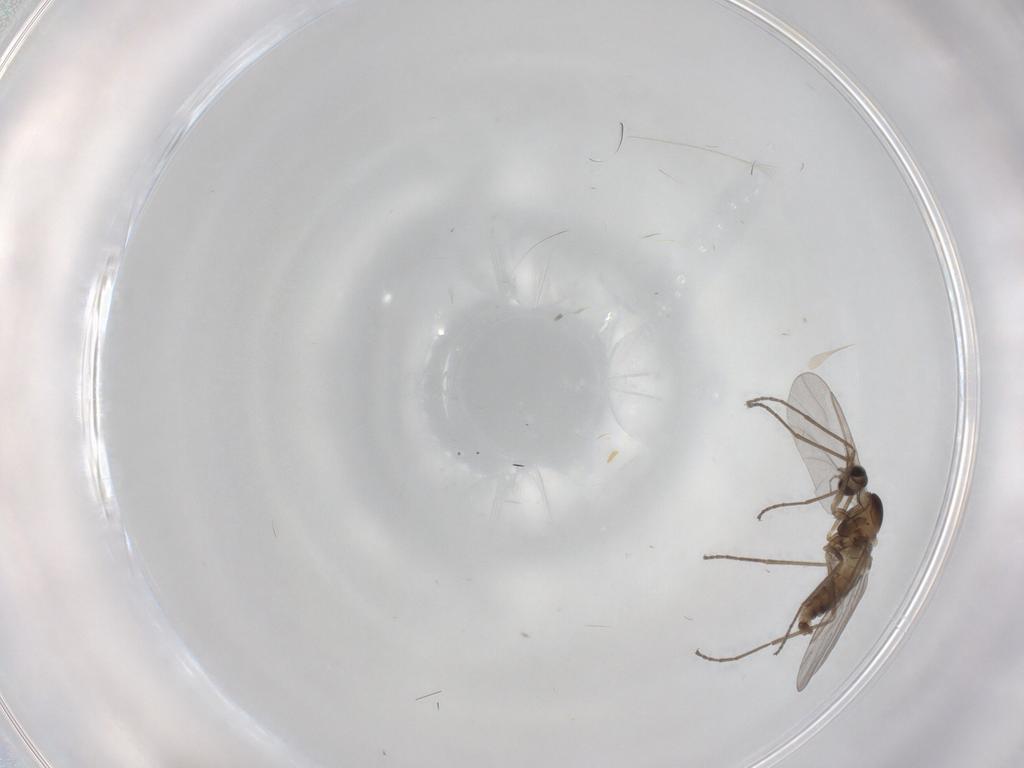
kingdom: Animalia
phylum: Arthropoda
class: Insecta
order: Diptera
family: Cecidomyiidae
